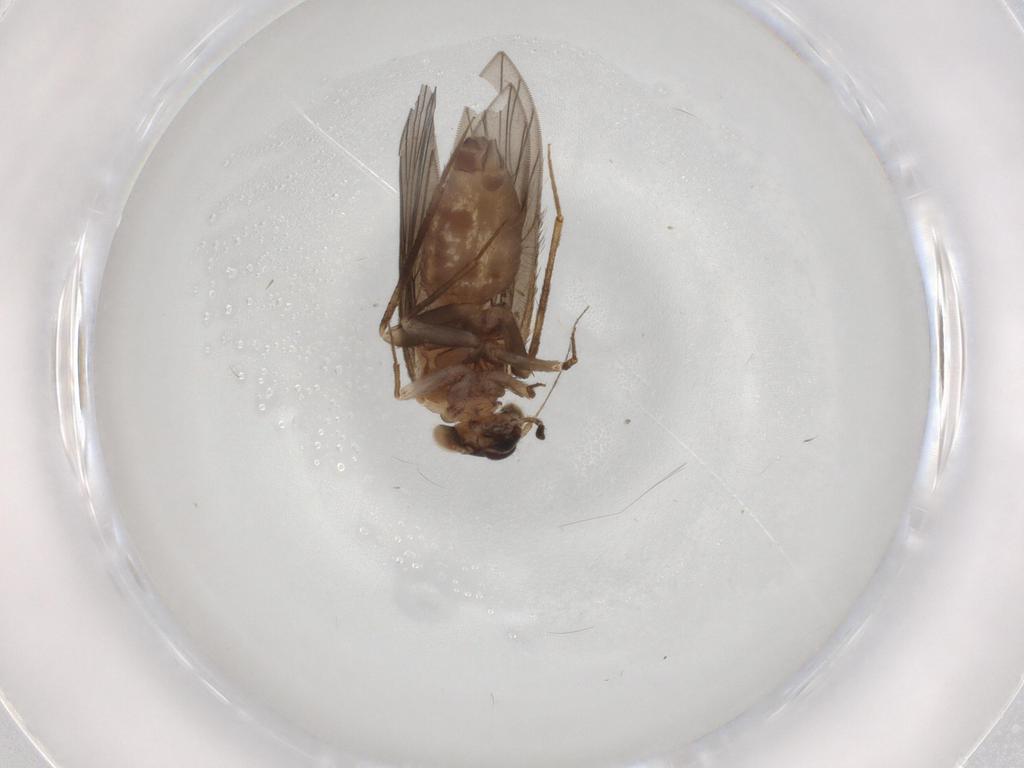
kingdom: Animalia
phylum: Arthropoda
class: Insecta
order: Psocodea
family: Lepidopsocidae
